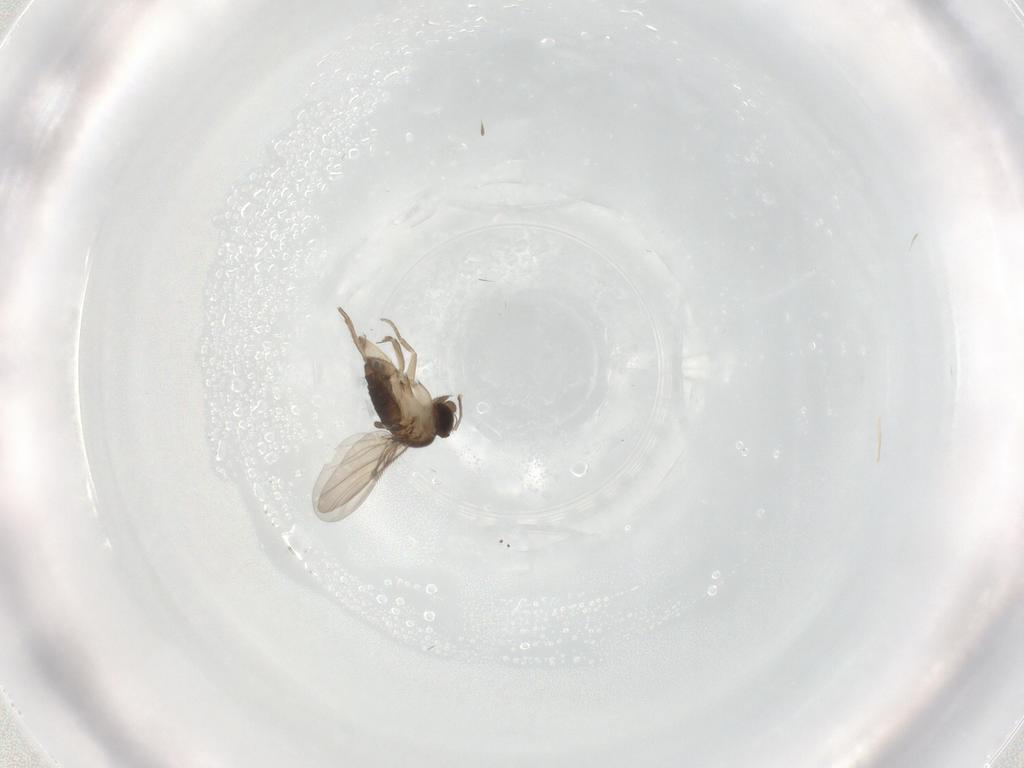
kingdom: Animalia
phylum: Arthropoda
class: Insecta
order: Diptera
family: Phoridae
